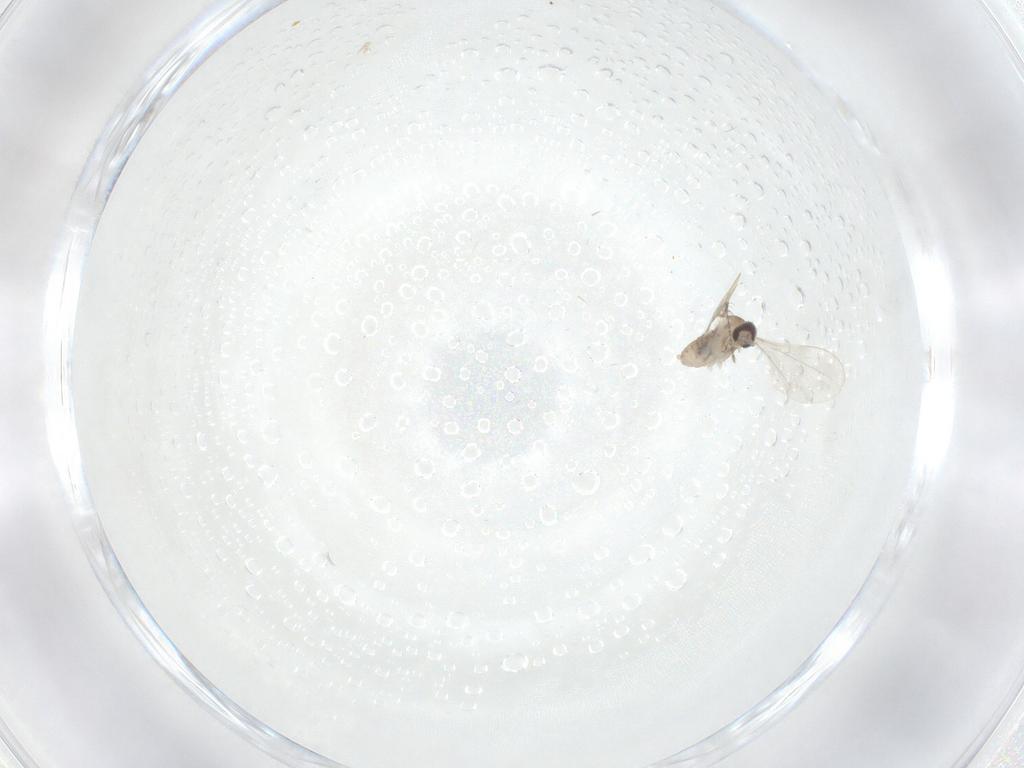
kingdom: Animalia
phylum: Arthropoda
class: Insecta
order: Diptera
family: Cecidomyiidae
